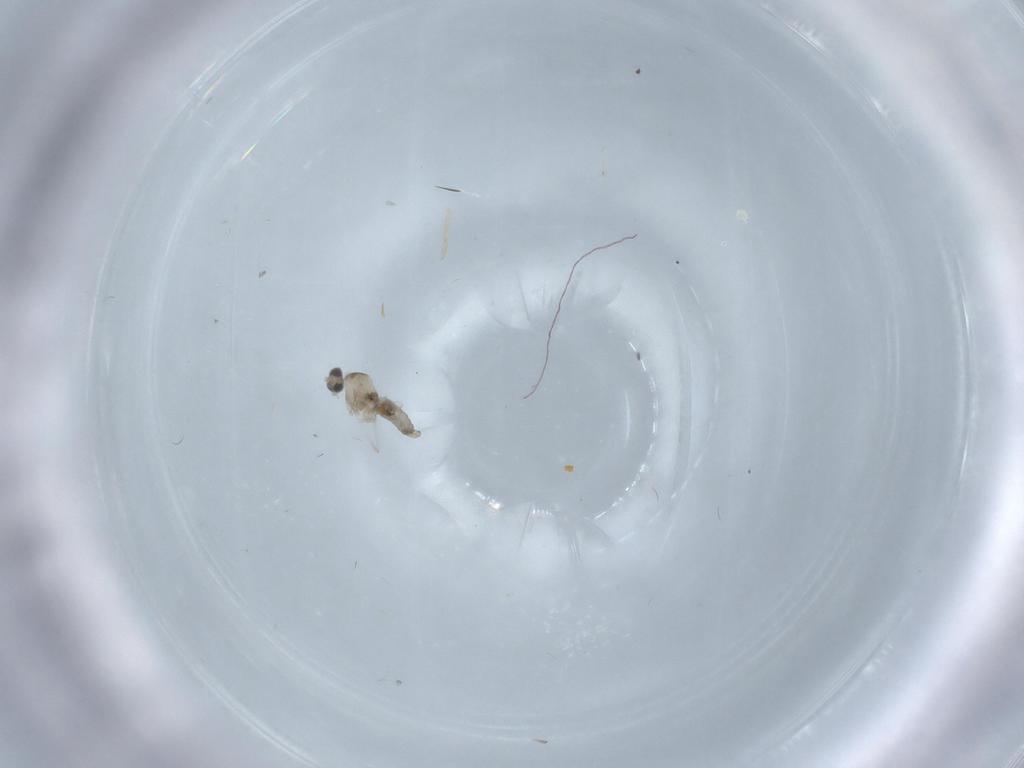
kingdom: Animalia
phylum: Arthropoda
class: Insecta
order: Diptera
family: Cecidomyiidae
